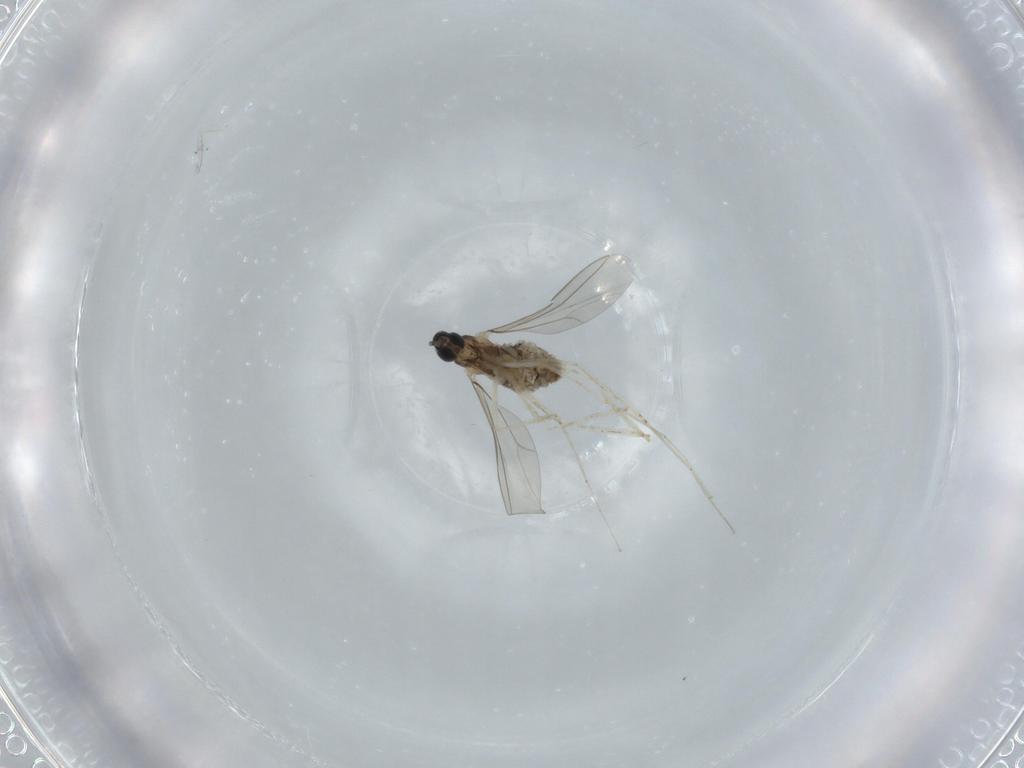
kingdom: Animalia
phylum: Arthropoda
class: Insecta
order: Diptera
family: Cecidomyiidae
